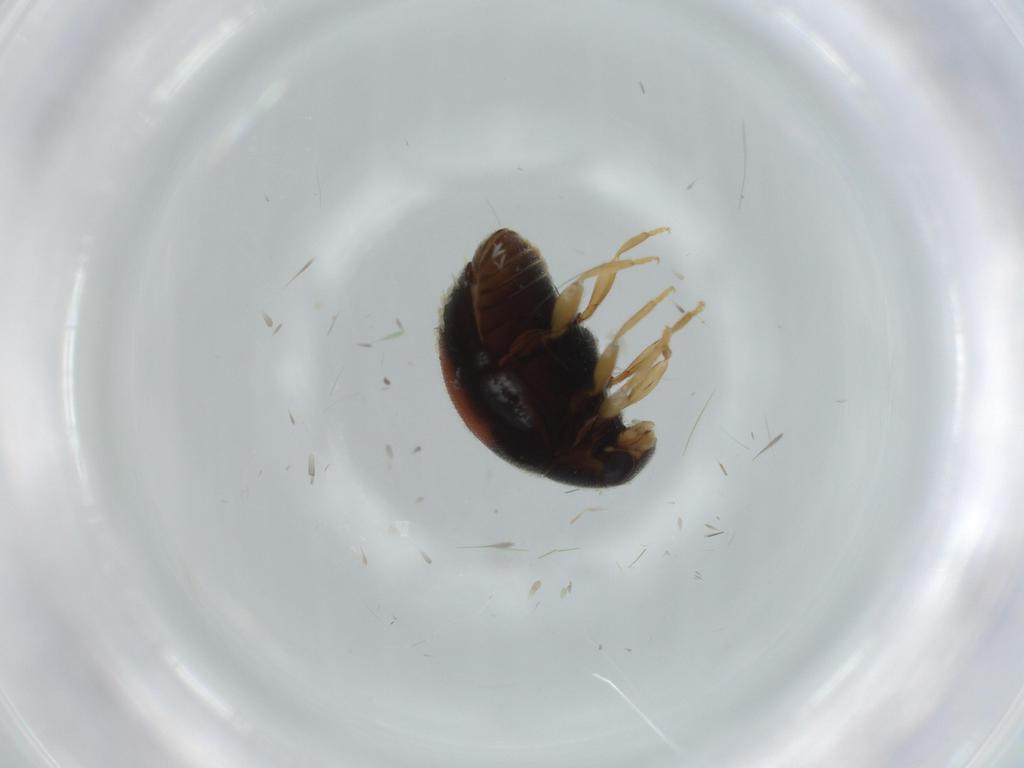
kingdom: Animalia
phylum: Arthropoda
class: Insecta
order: Coleoptera
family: Coccinellidae
